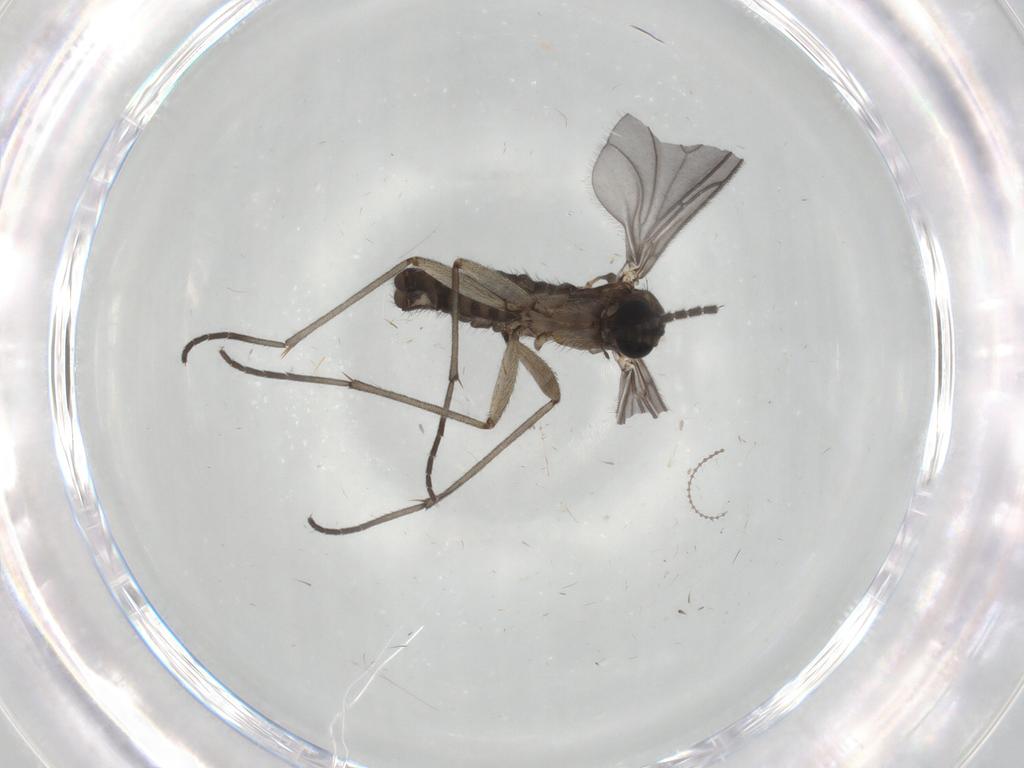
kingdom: Animalia
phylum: Arthropoda
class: Insecta
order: Diptera
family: Sciaridae
